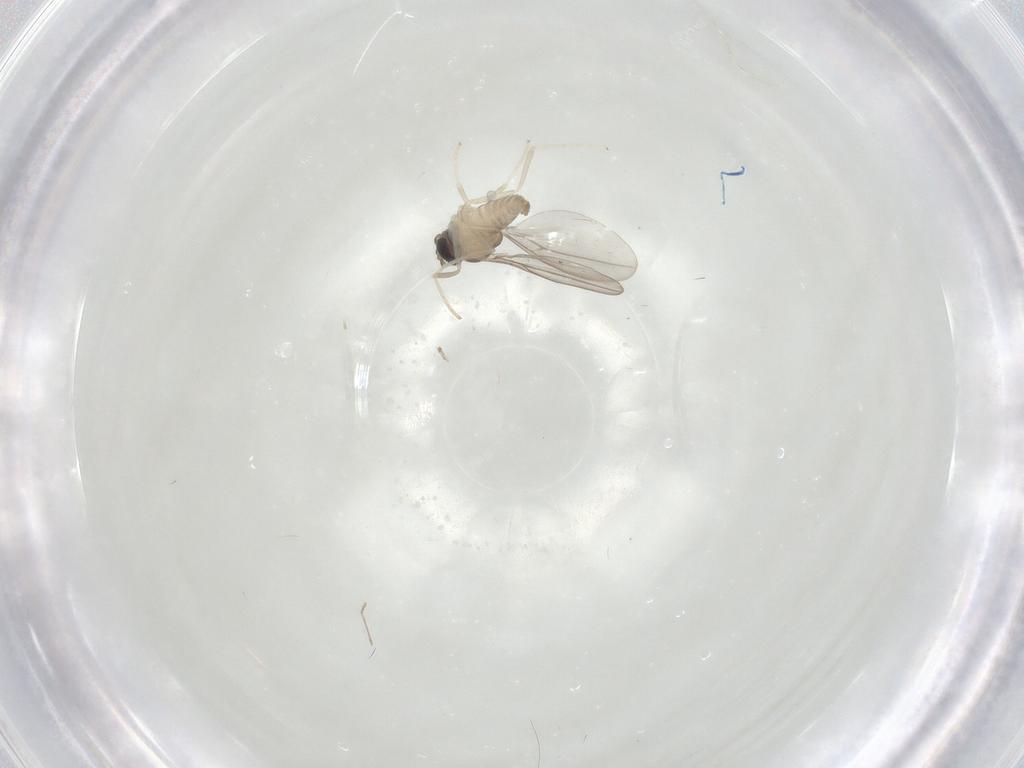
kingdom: Animalia
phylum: Arthropoda
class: Insecta
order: Diptera
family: Cecidomyiidae
